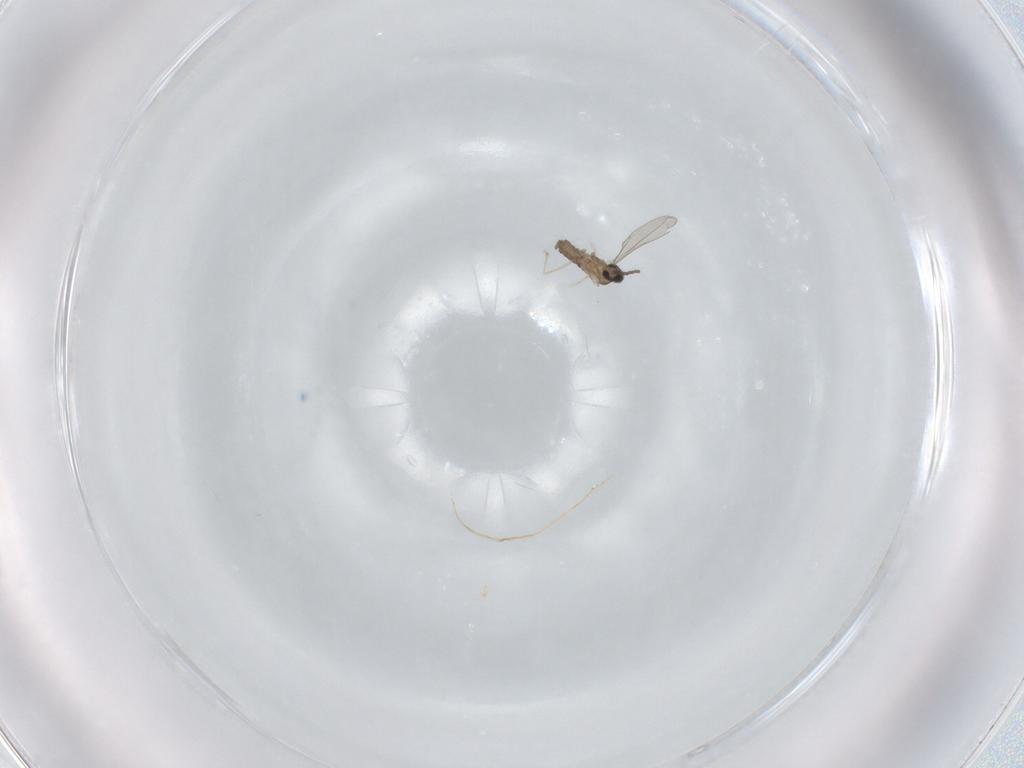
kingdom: Animalia
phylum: Arthropoda
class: Insecta
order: Diptera
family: Cecidomyiidae
